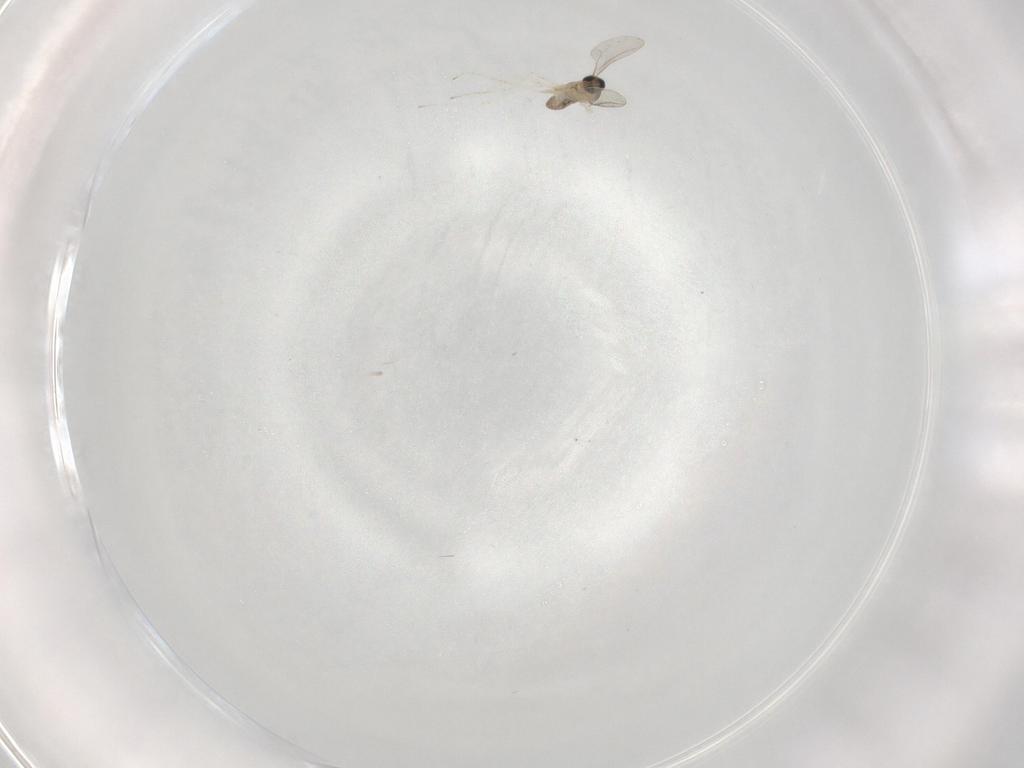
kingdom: Animalia
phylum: Arthropoda
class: Insecta
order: Diptera
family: Cecidomyiidae
